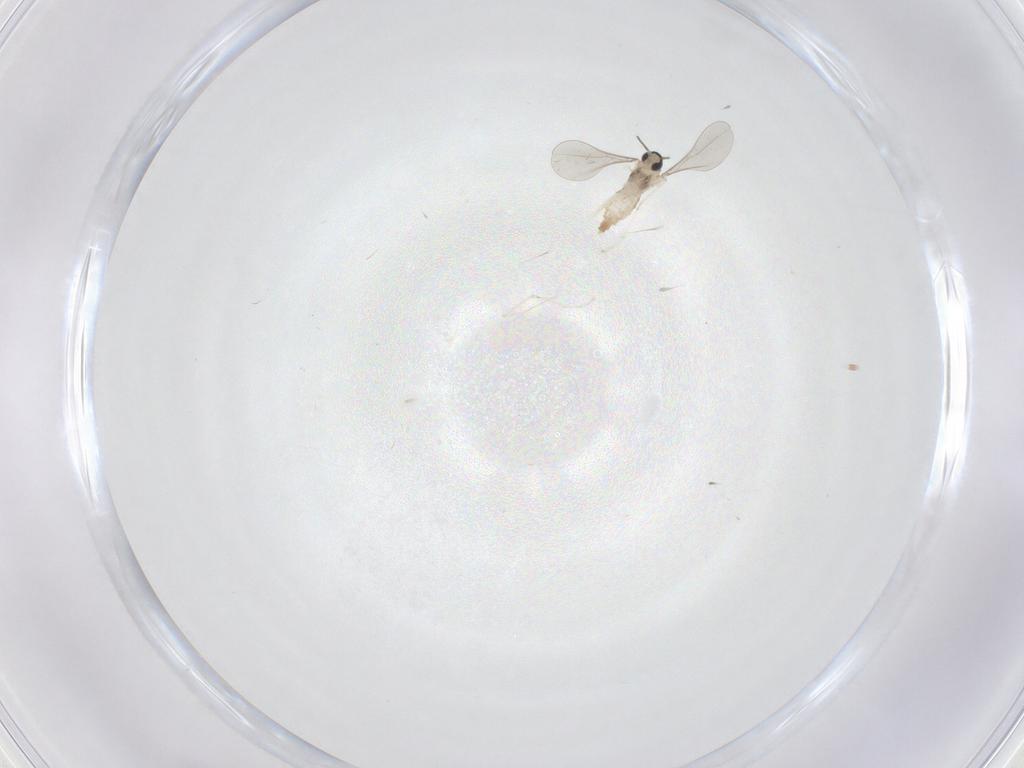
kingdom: Animalia
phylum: Arthropoda
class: Insecta
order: Diptera
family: Cecidomyiidae
